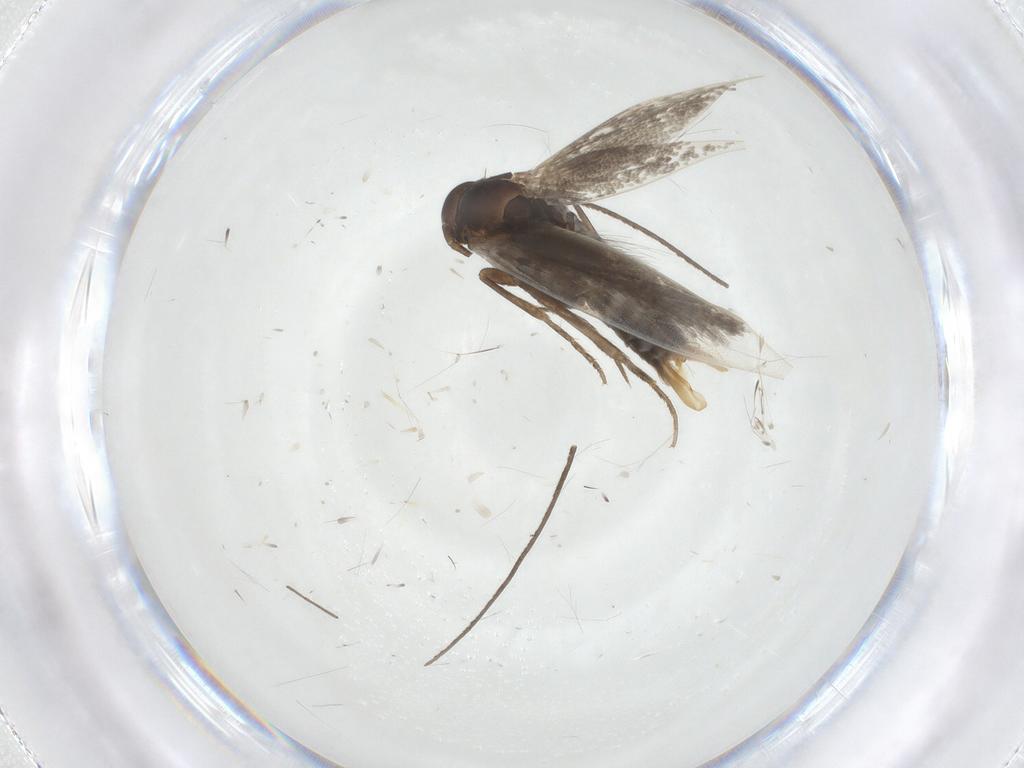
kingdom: Animalia
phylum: Arthropoda
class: Insecta
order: Lepidoptera
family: Elachistidae
